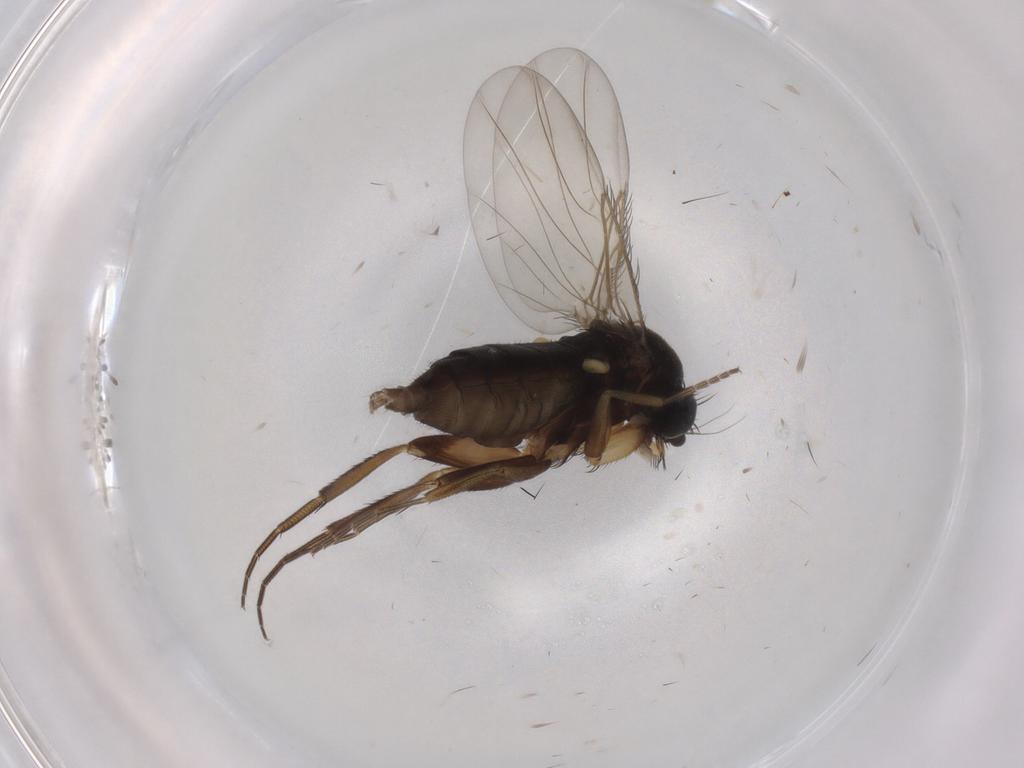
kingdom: Animalia
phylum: Arthropoda
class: Insecta
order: Diptera
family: Phoridae
